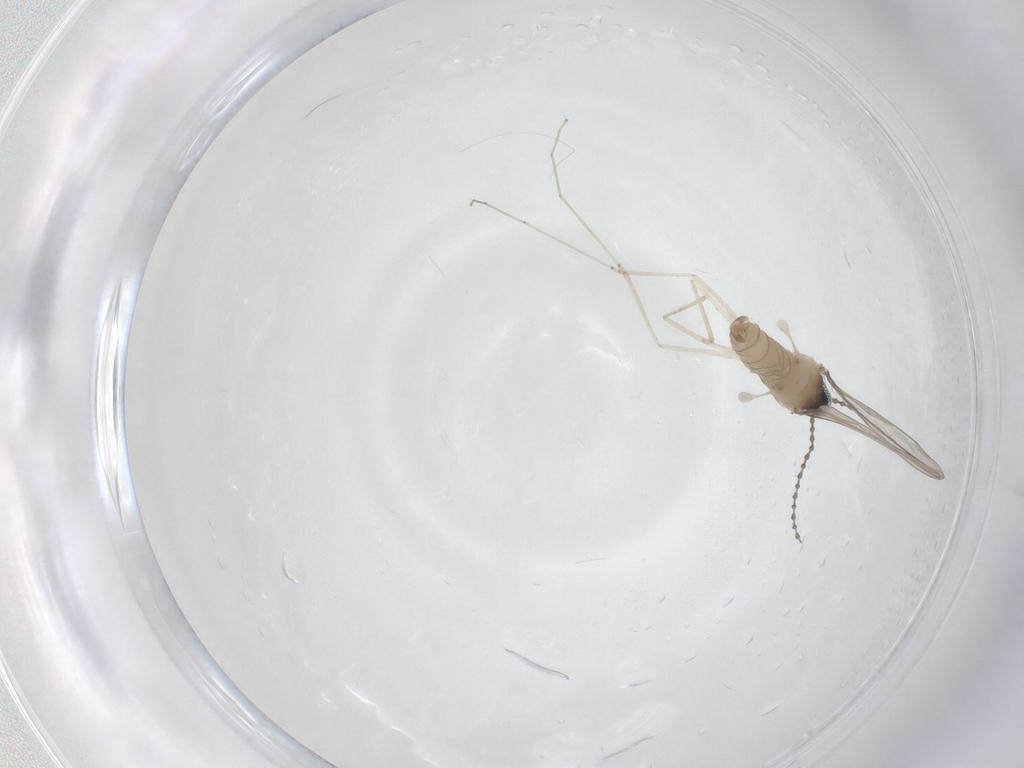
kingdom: Animalia
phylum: Arthropoda
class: Insecta
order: Diptera
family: Cecidomyiidae
